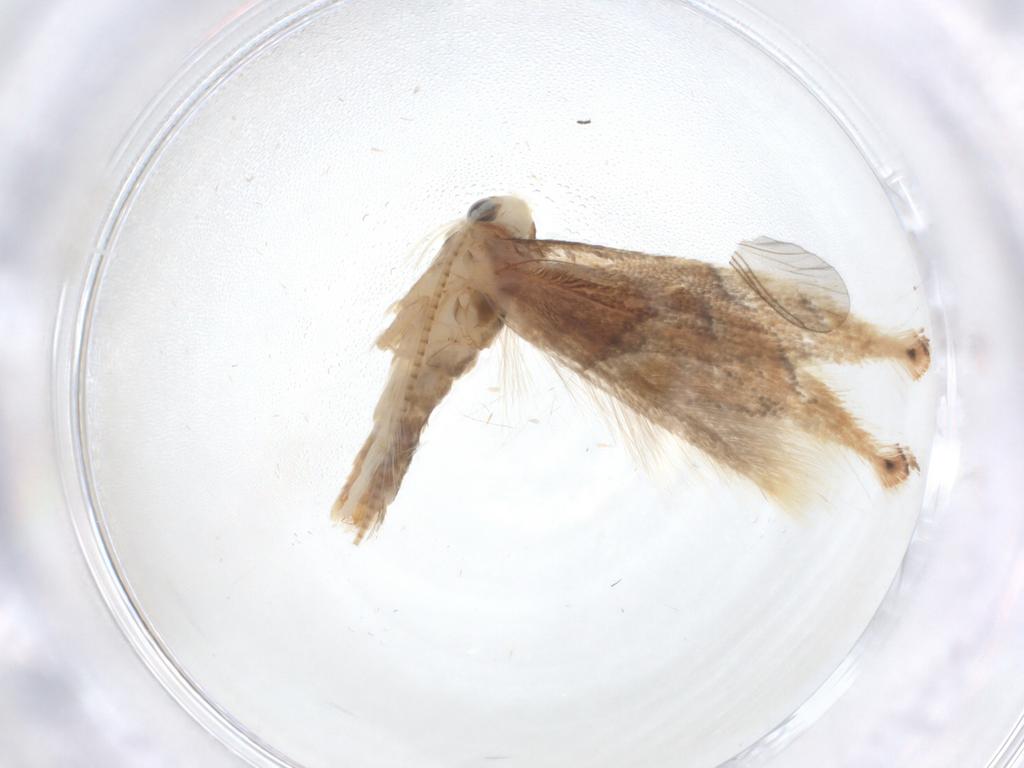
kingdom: Animalia
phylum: Arthropoda
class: Insecta
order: Lepidoptera
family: Gracillariidae
